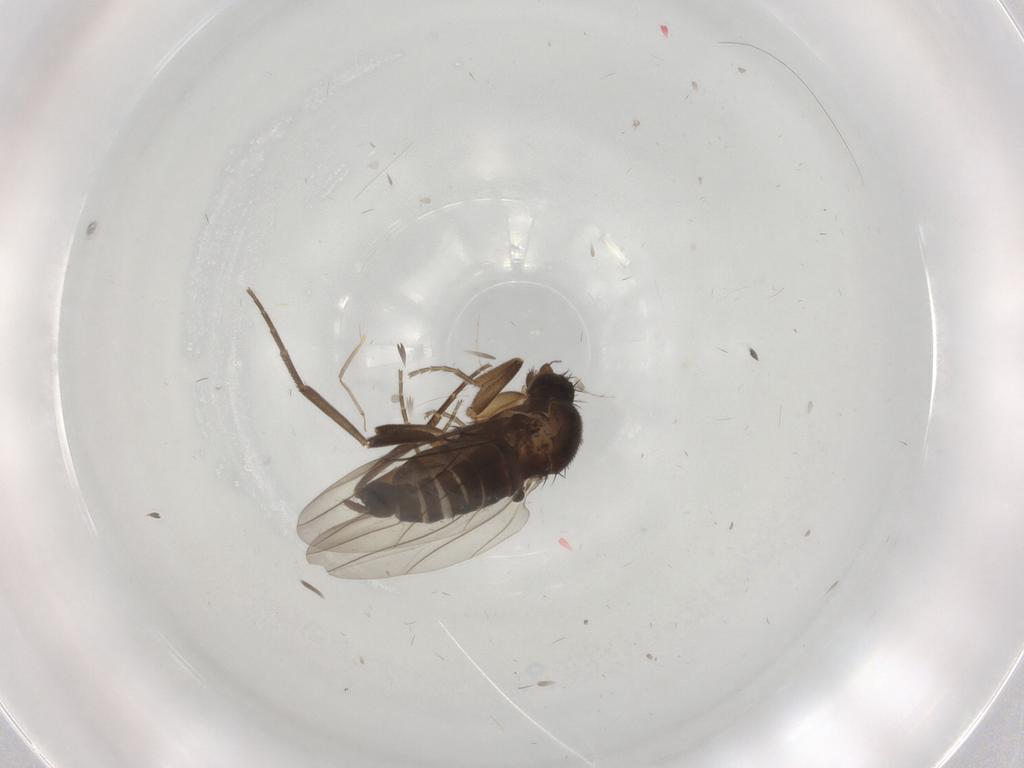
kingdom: Animalia
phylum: Arthropoda
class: Insecta
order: Diptera
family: Cecidomyiidae
